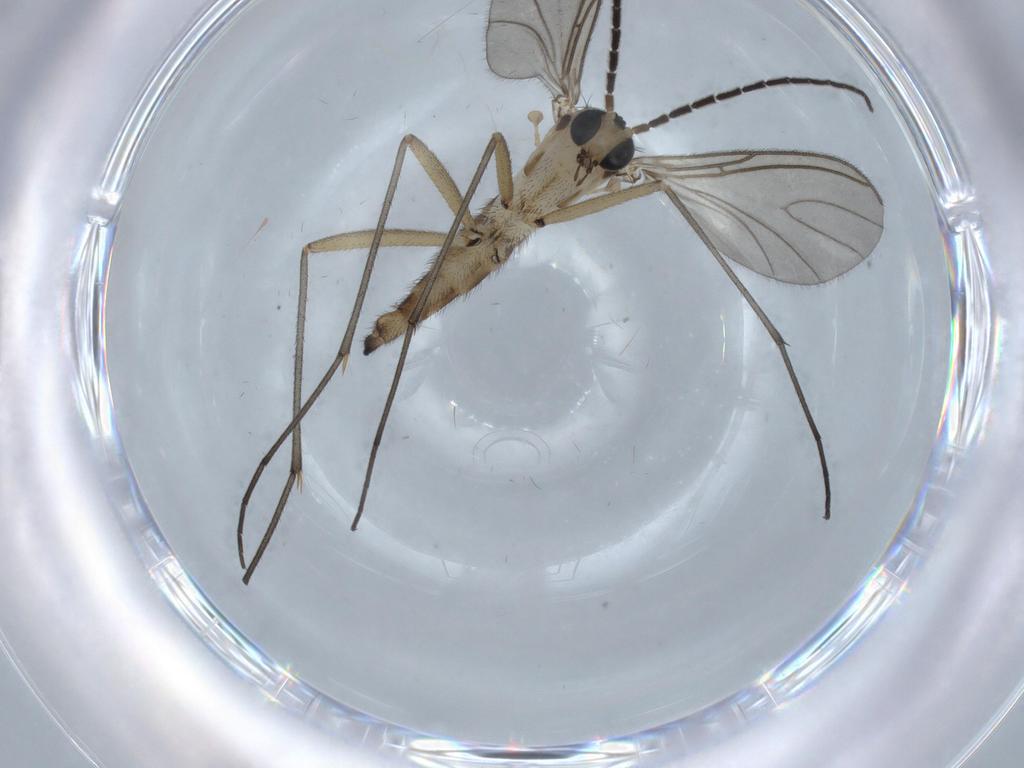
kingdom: Animalia
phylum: Arthropoda
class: Insecta
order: Diptera
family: Sciaridae
